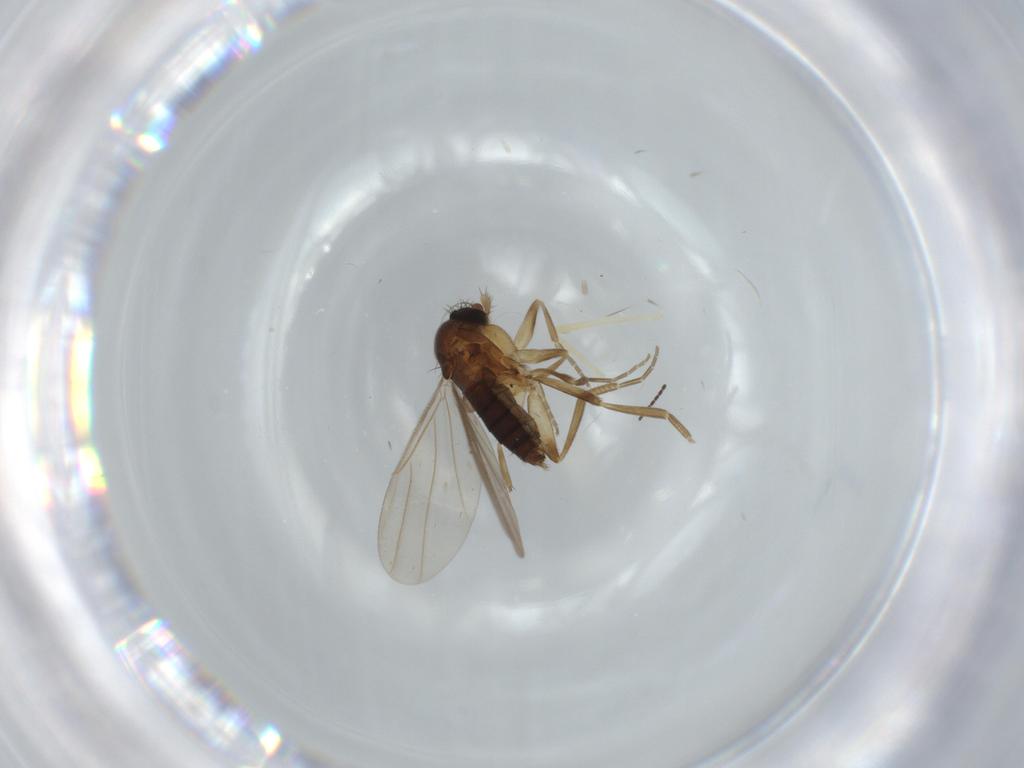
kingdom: Animalia
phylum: Arthropoda
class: Insecta
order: Diptera
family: Phoridae
